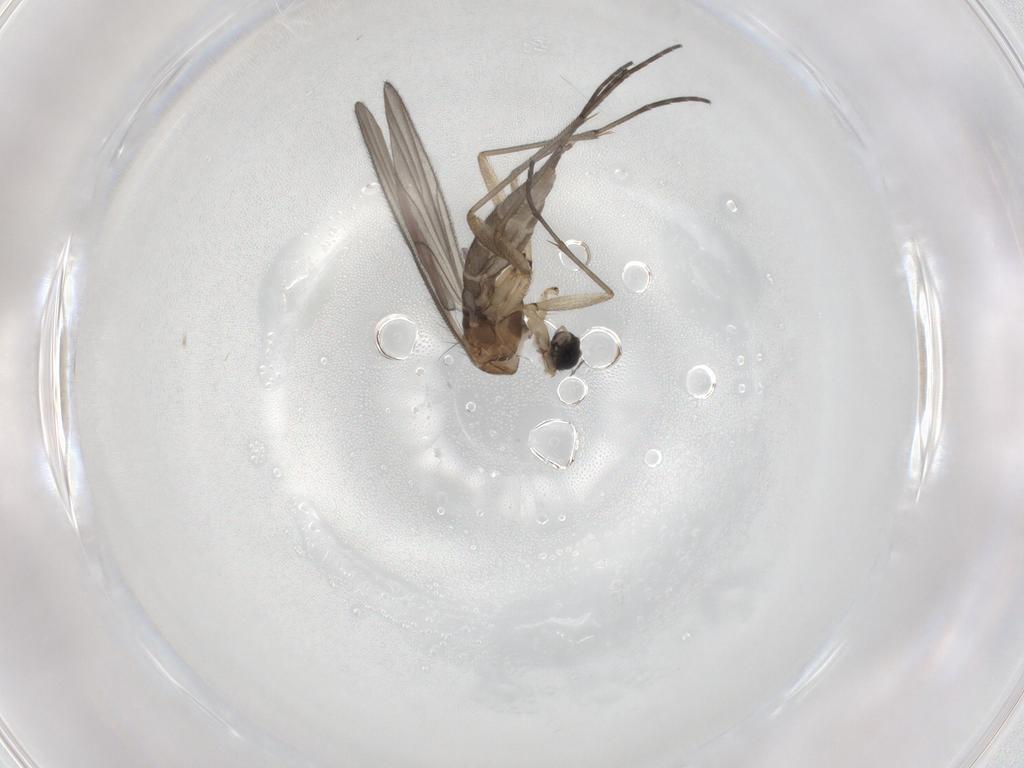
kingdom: Animalia
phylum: Arthropoda
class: Insecta
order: Diptera
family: Sciaridae
